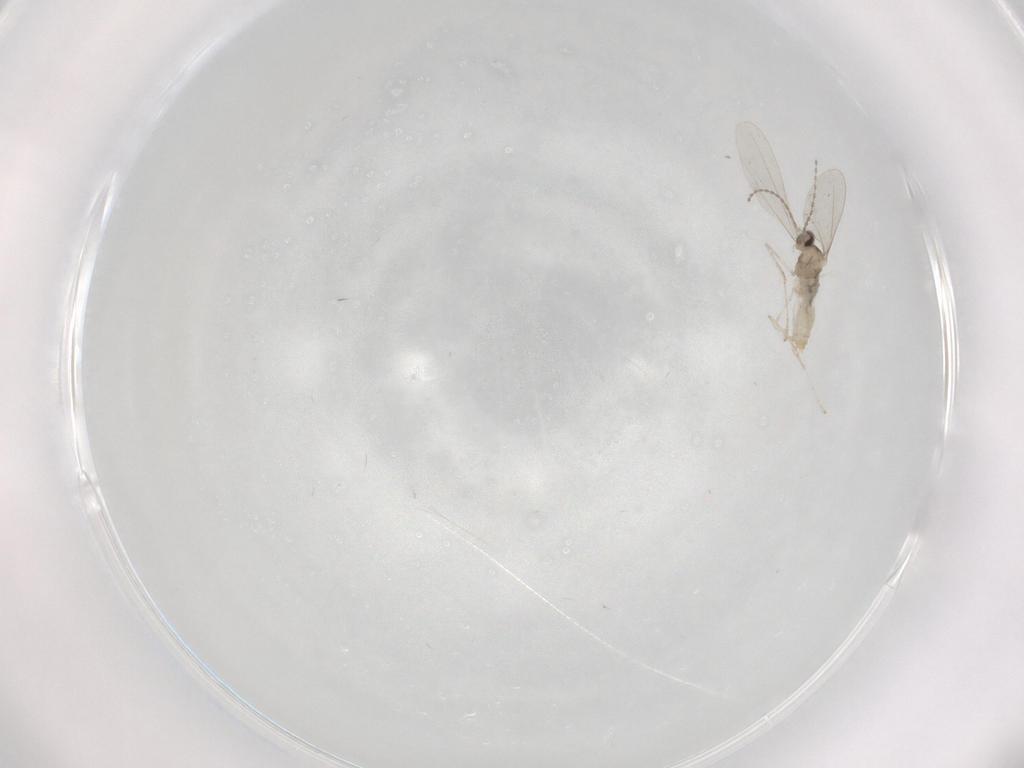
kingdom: Animalia
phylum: Arthropoda
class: Insecta
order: Diptera
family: Cecidomyiidae
